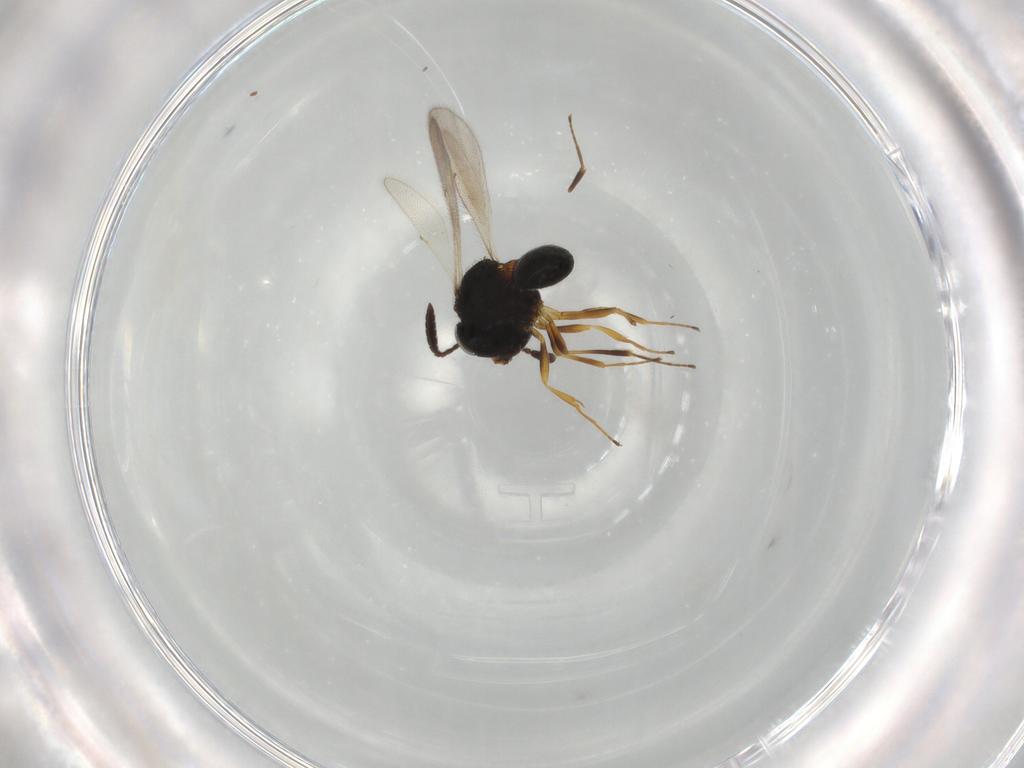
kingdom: Animalia
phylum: Arthropoda
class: Insecta
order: Hymenoptera
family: Scelionidae
